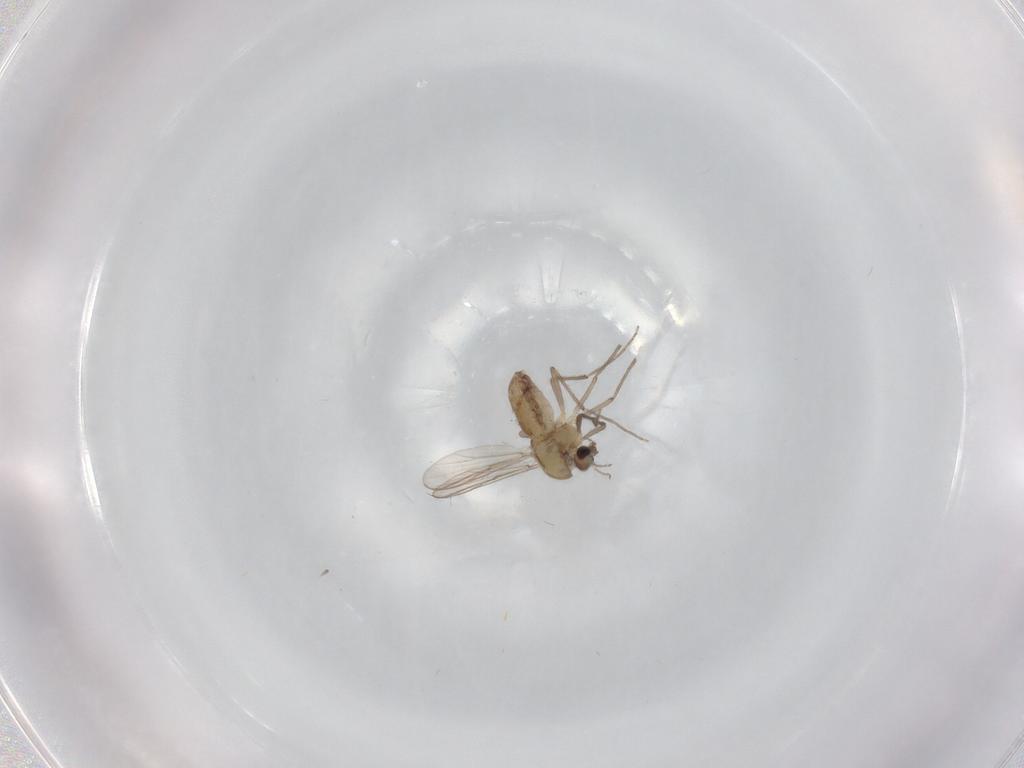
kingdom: Animalia
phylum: Arthropoda
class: Insecta
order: Diptera
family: Chironomidae
